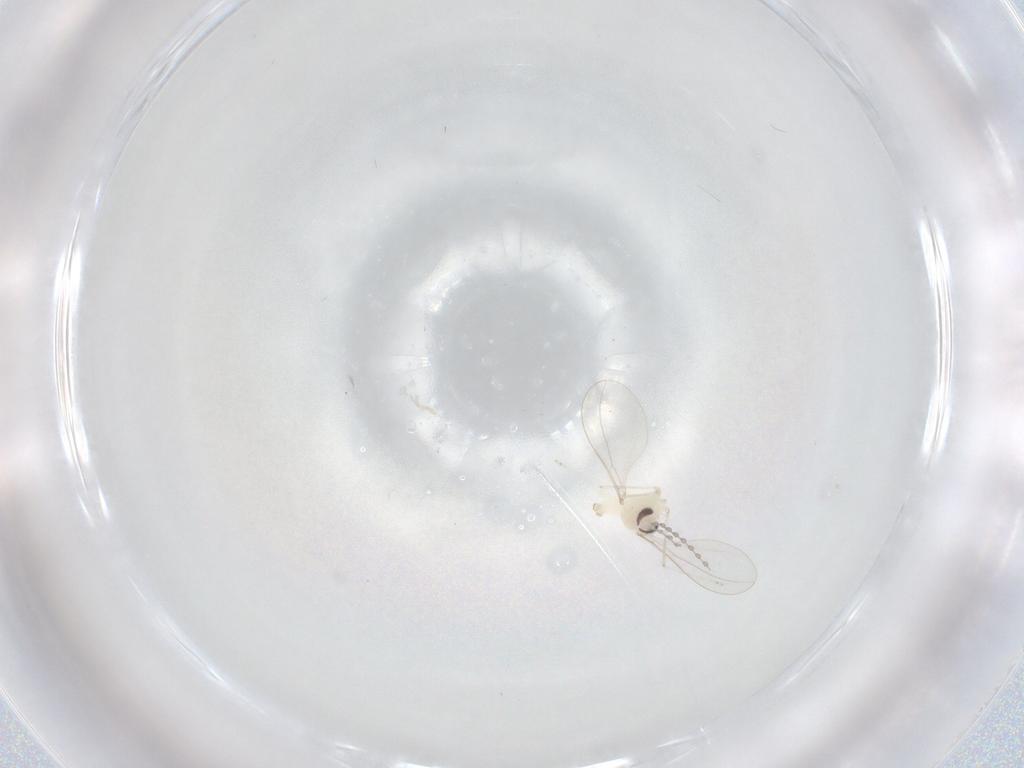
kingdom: Animalia
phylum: Arthropoda
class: Insecta
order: Diptera
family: Cecidomyiidae
